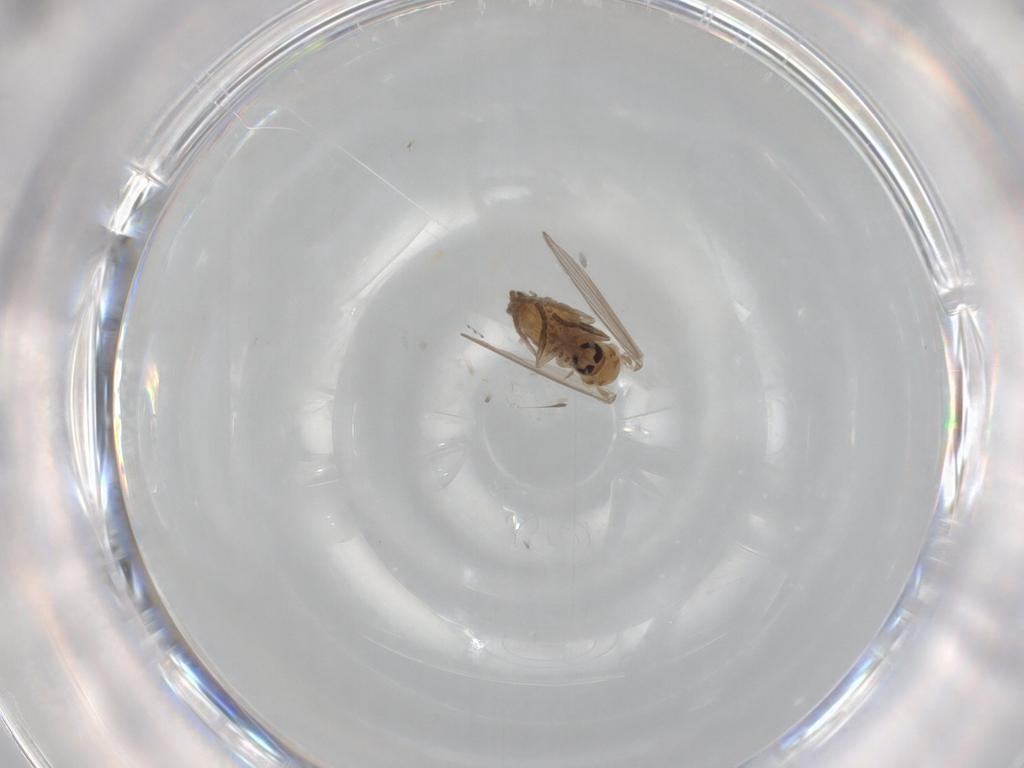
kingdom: Animalia
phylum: Arthropoda
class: Insecta
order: Diptera
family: Psychodidae
